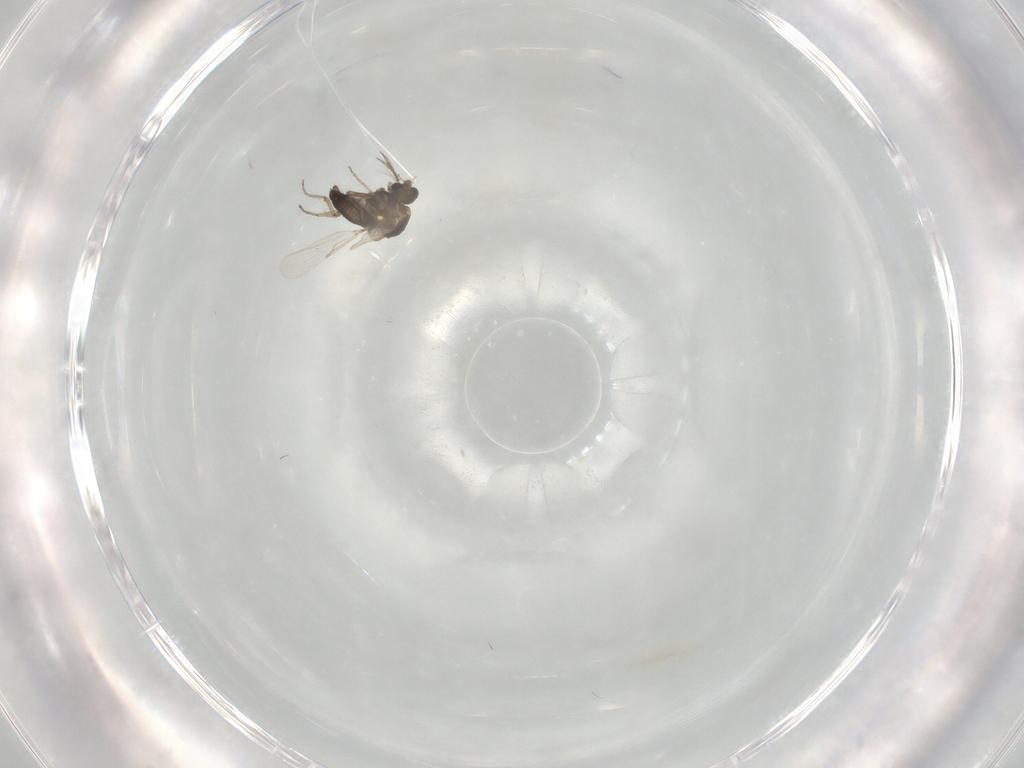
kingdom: Animalia
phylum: Arthropoda
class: Insecta
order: Diptera
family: Ceratopogonidae
